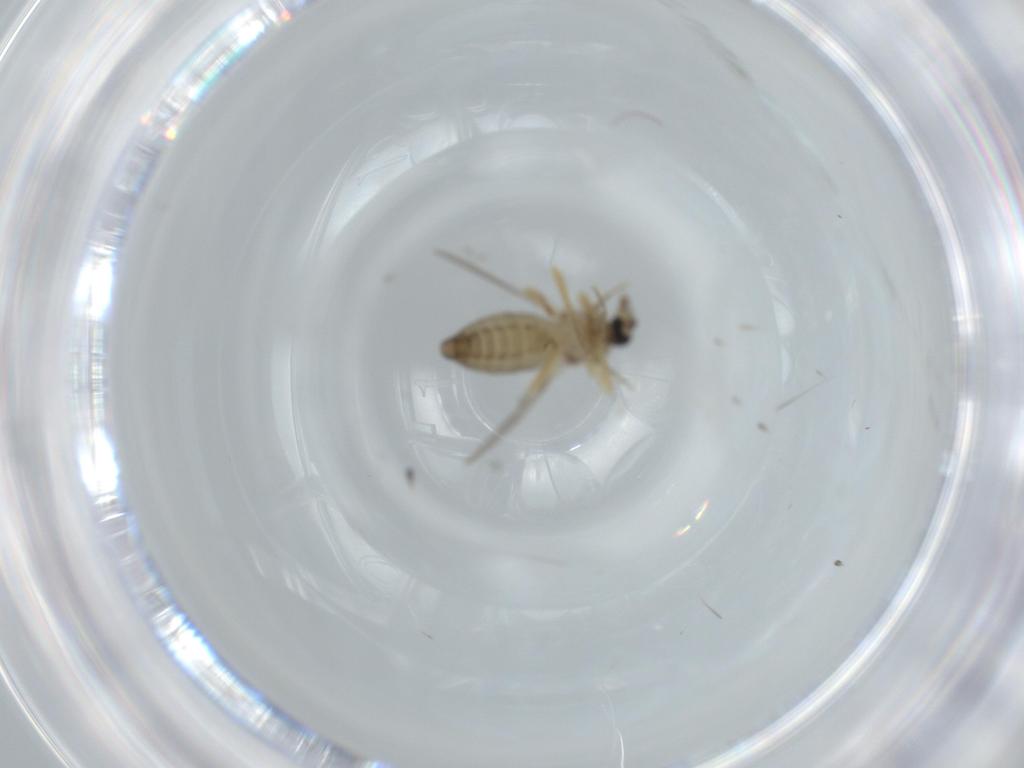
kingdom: Animalia
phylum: Arthropoda
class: Insecta
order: Diptera
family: Ceratopogonidae
